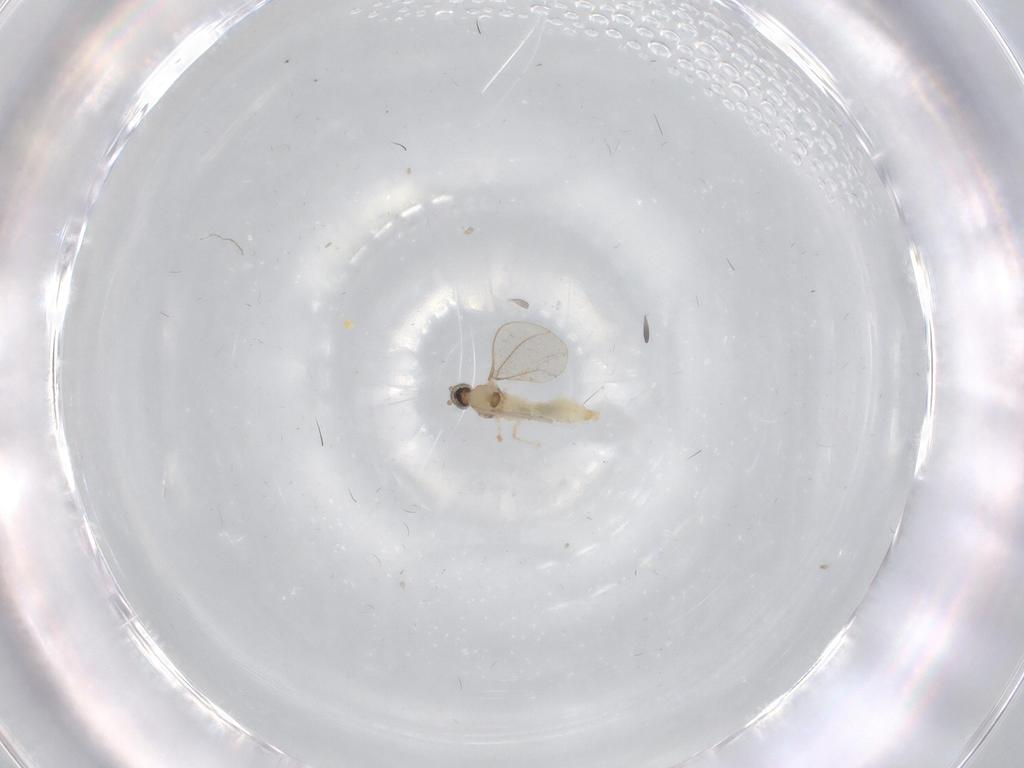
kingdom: Animalia
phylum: Arthropoda
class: Insecta
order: Diptera
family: Cecidomyiidae
